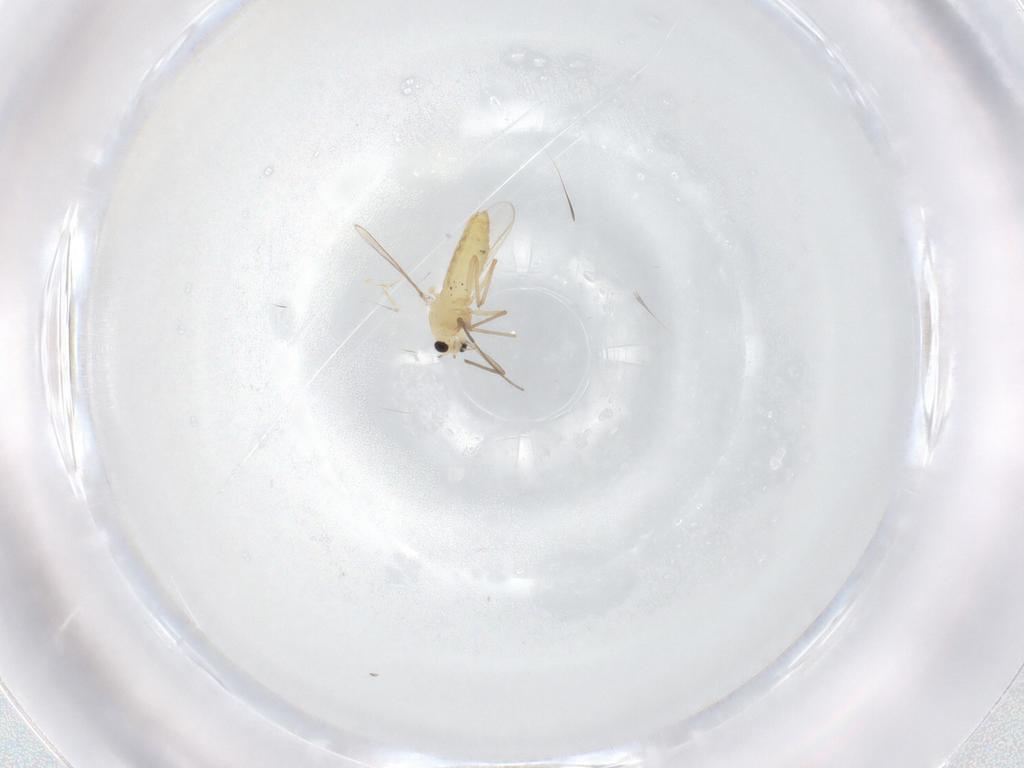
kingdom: Animalia
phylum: Arthropoda
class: Insecta
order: Diptera
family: Chironomidae
